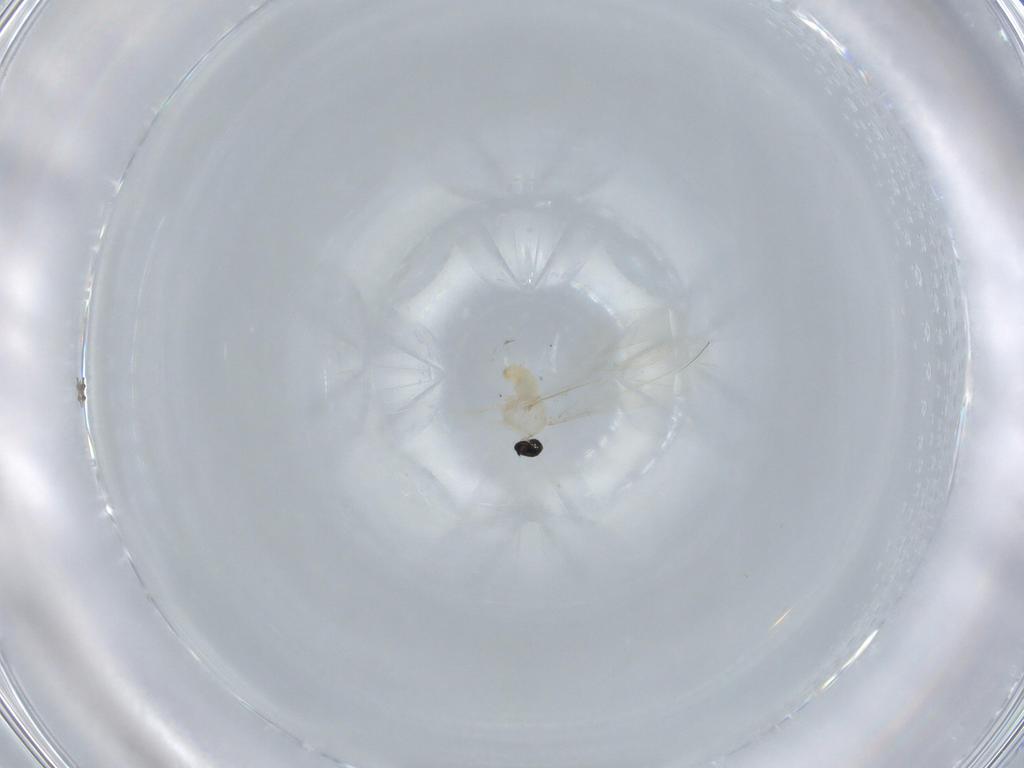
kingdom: Animalia
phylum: Arthropoda
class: Insecta
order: Diptera
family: Cecidomyiidae
